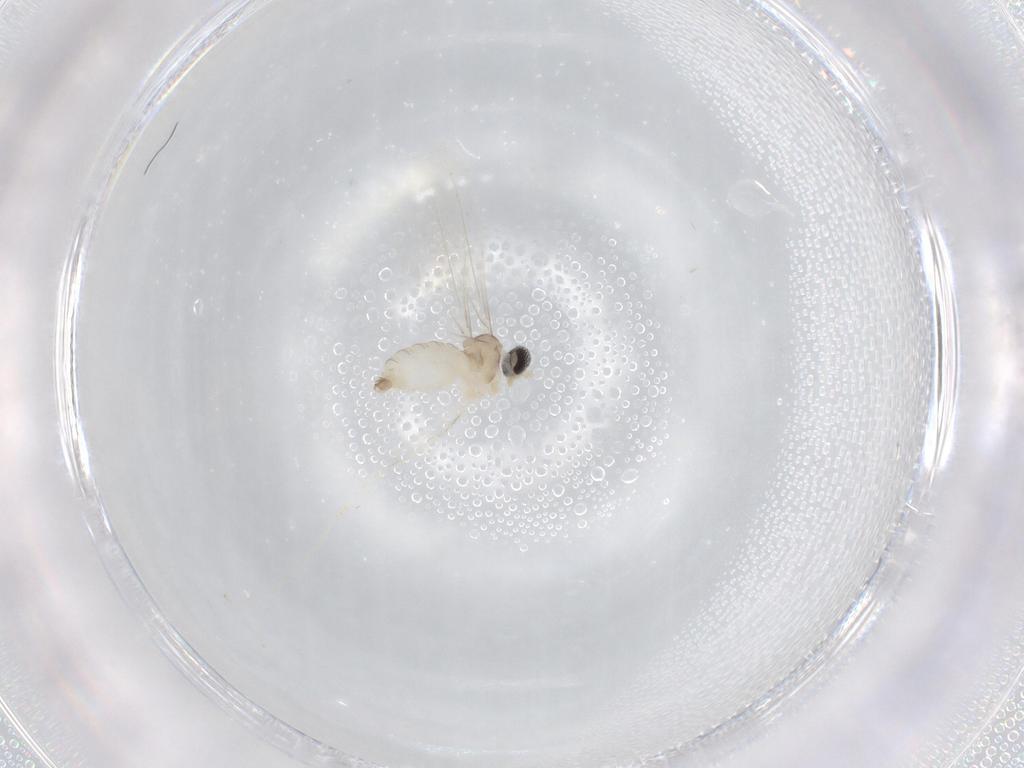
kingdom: Animalia
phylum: Arthropoda
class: Insecta
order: Diptera
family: Cecidomyiidae
